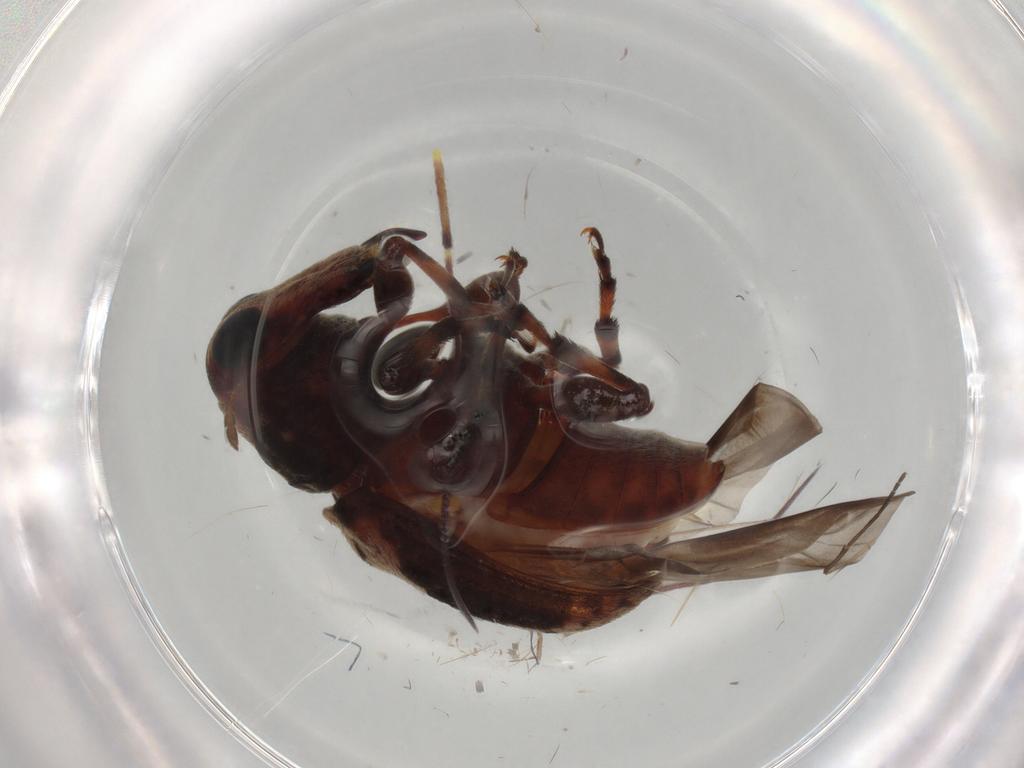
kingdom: Animalia
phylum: Arthropoda
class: Insecta
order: Coleoptera
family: Anthribidae
